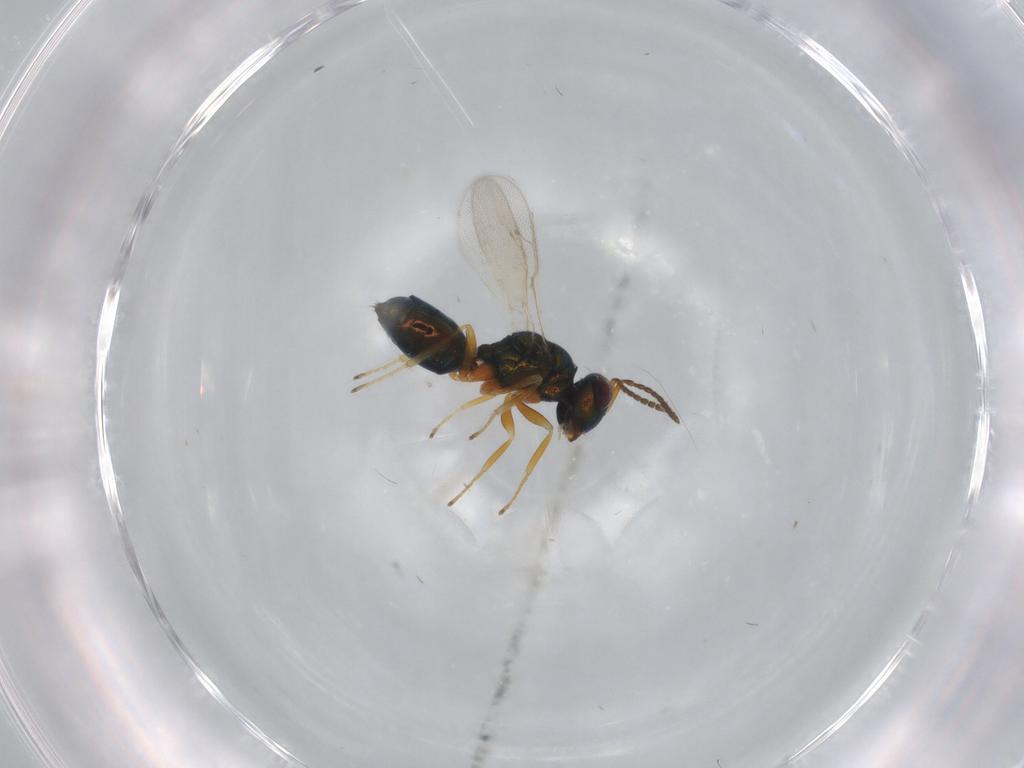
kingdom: Animalia
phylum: Arthropoda
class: Insecta
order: Hymenoptera
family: Scelionidae
